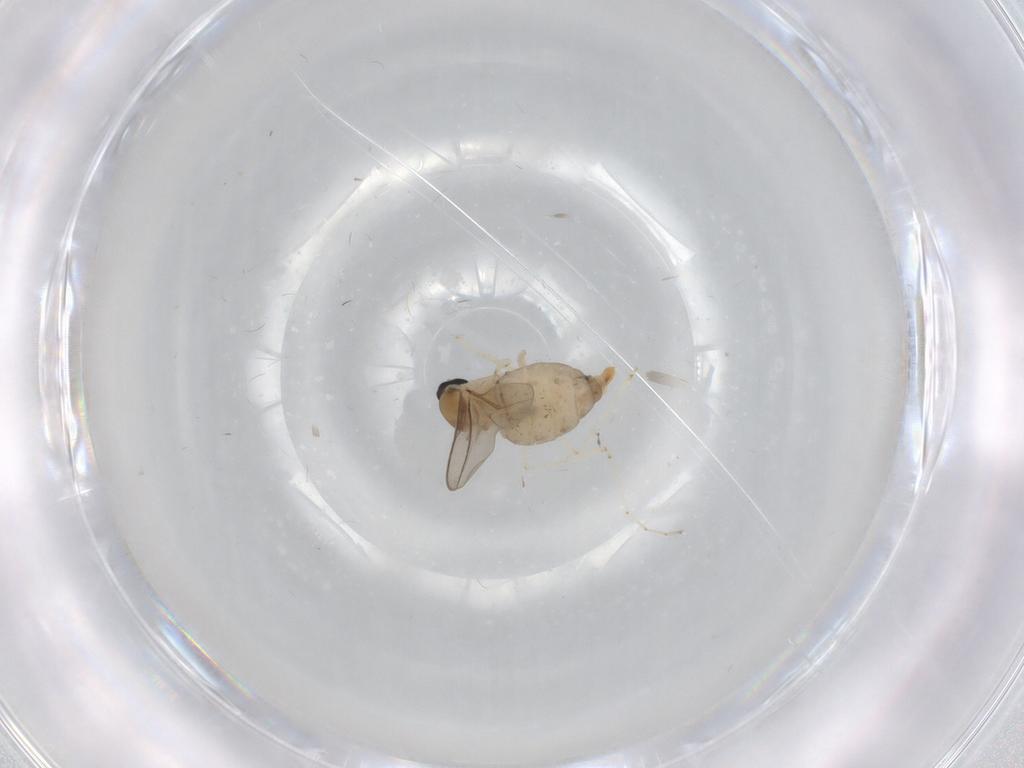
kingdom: Animalia
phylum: Arthropoda
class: Insecta
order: Diptera
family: Cecidomyiidae
